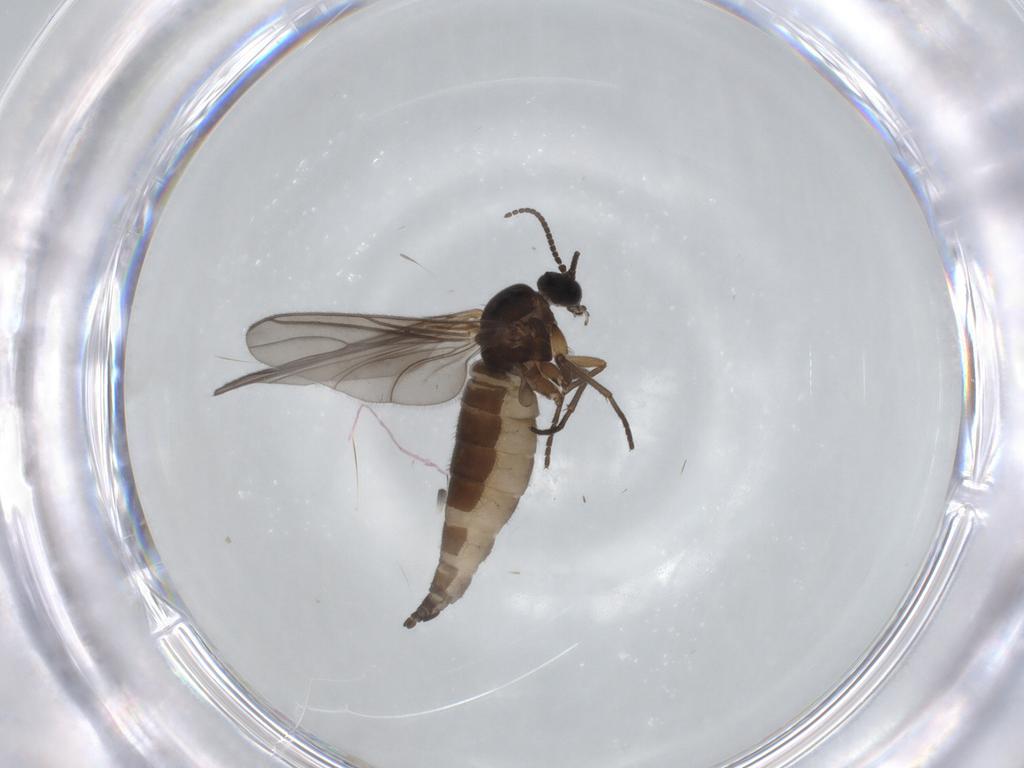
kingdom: Animalia
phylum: Arthropoda
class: Insecta
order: Diptera
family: Sciaridae
